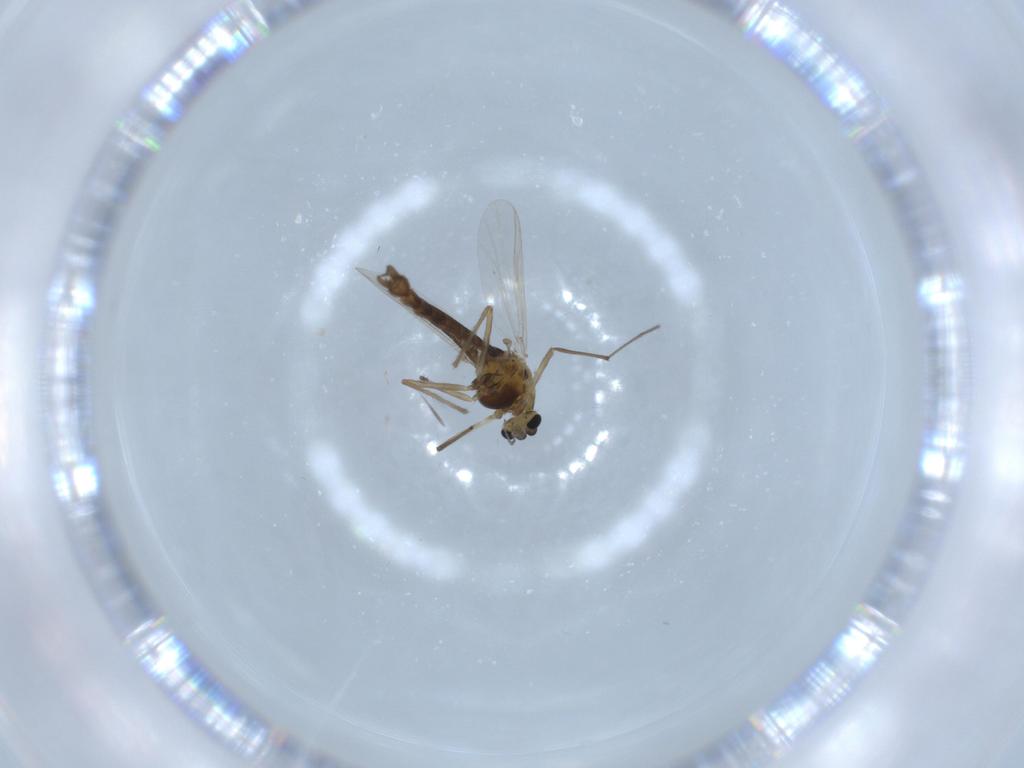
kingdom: Animalia
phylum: Arthropoda
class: Insecta
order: Diptera
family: Chironomidae
